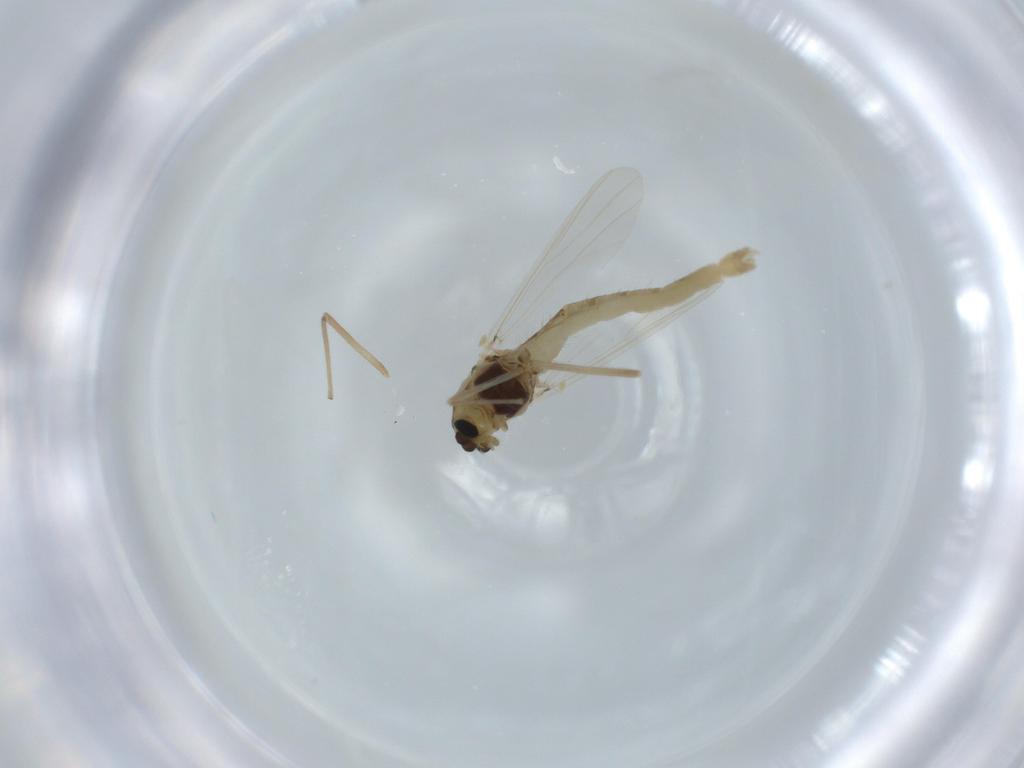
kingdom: Animalia
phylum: Arthropoda
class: Insecta
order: Diptera
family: Chironomidae
